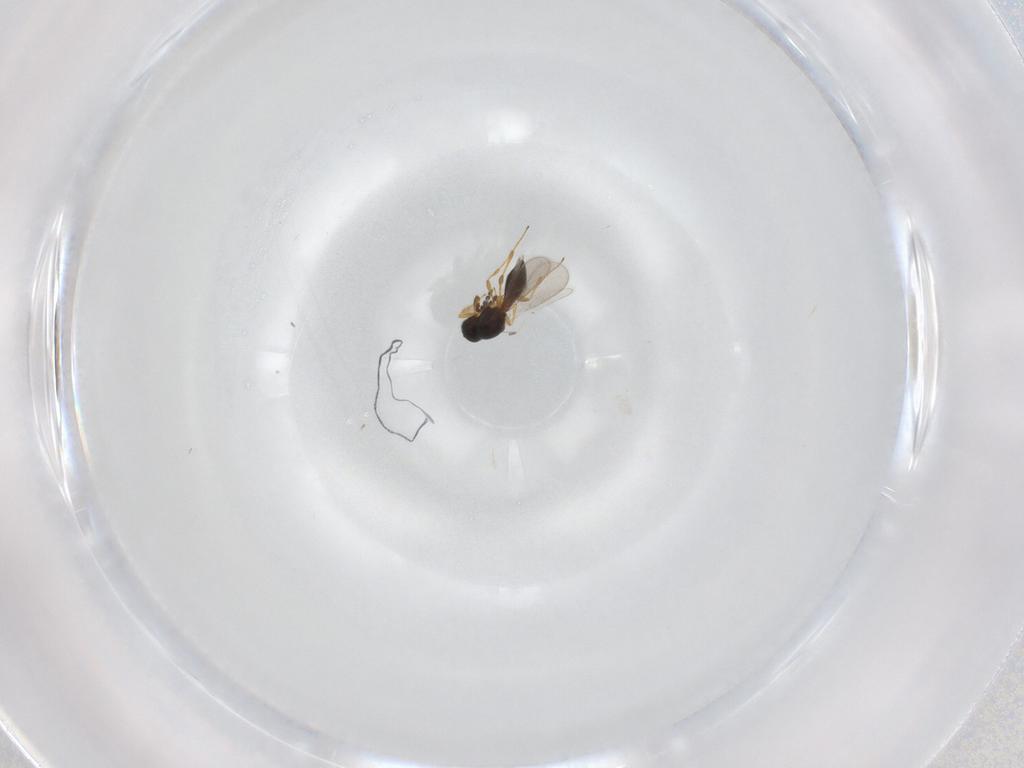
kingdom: Animalia
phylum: Arthropoda
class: Insecta
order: Hymenoptera
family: Platygastridae
